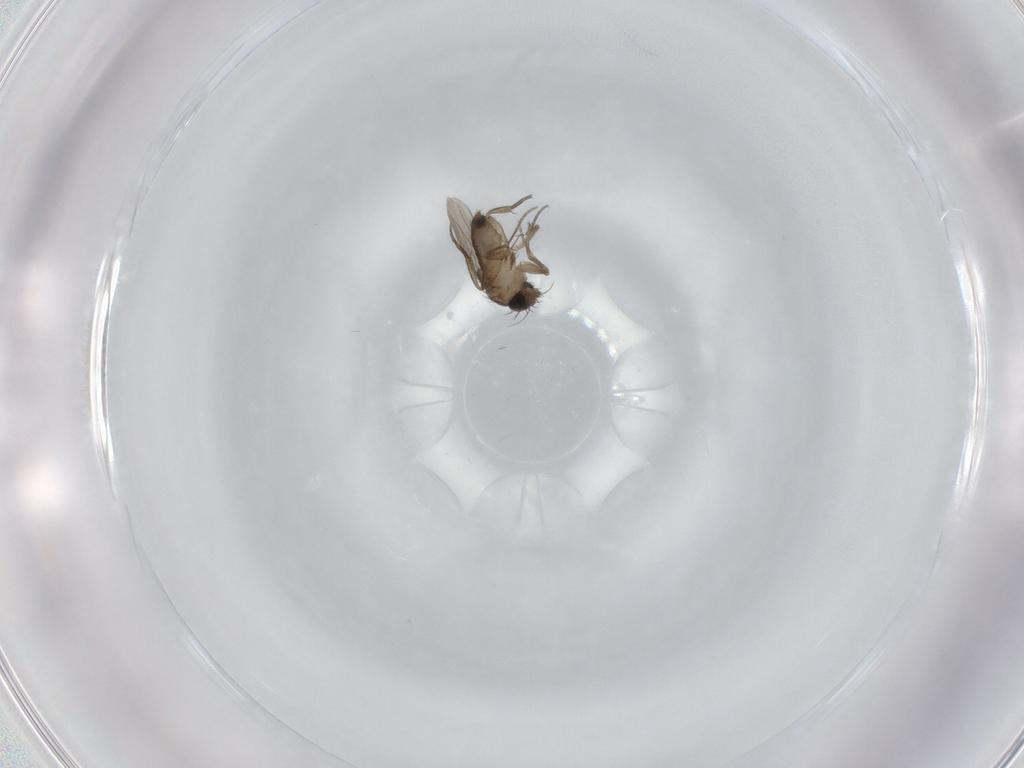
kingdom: Animalia
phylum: Arthropoda
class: Insecta
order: Diptera
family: Phoridae
